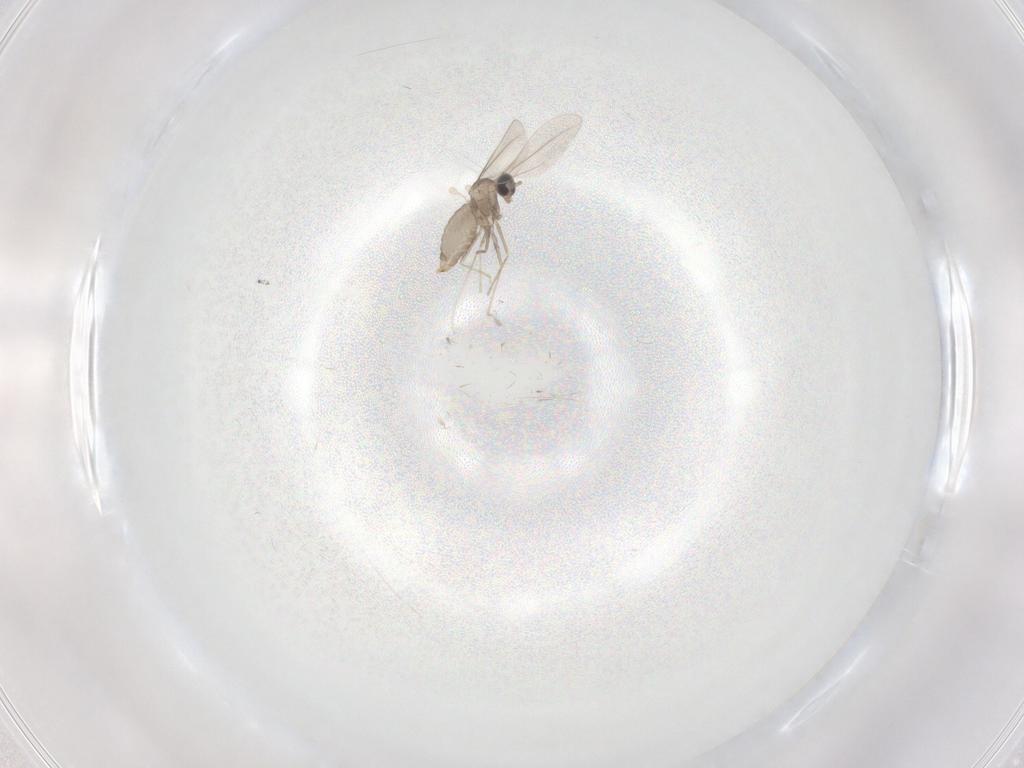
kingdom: Animalia
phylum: Arthropoda
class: Insecta
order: Diptera
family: Cecidomyiidae
